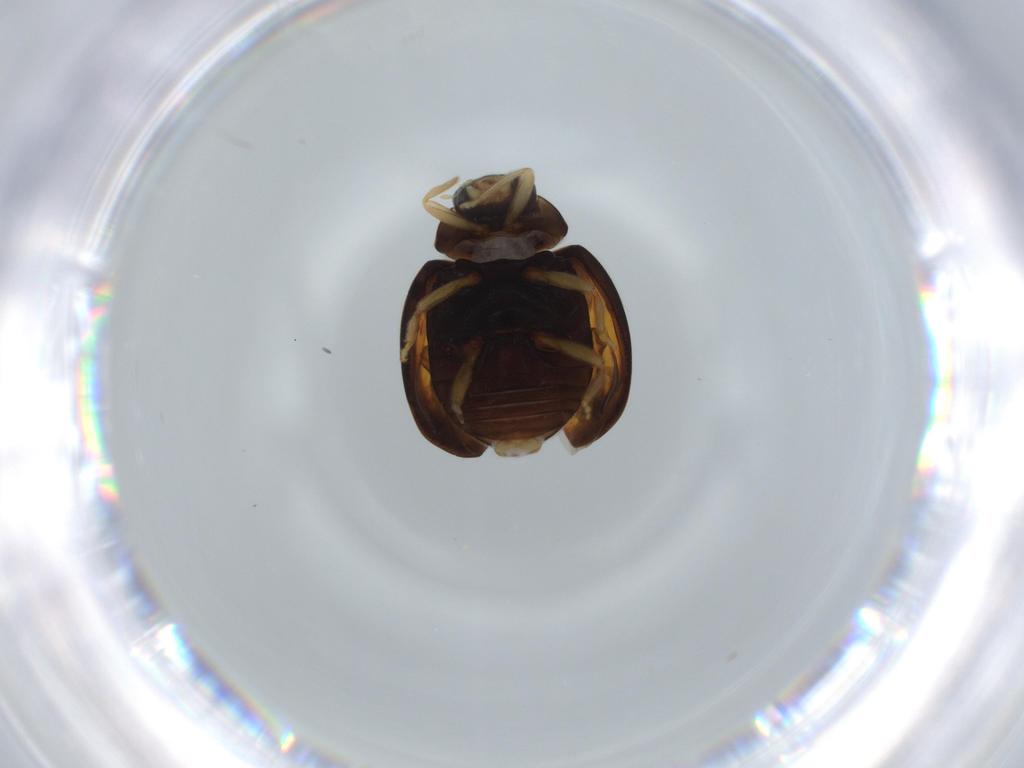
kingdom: Animalia
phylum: Arthropoda
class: Insecta
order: Coleoptera
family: Coccinellidae
